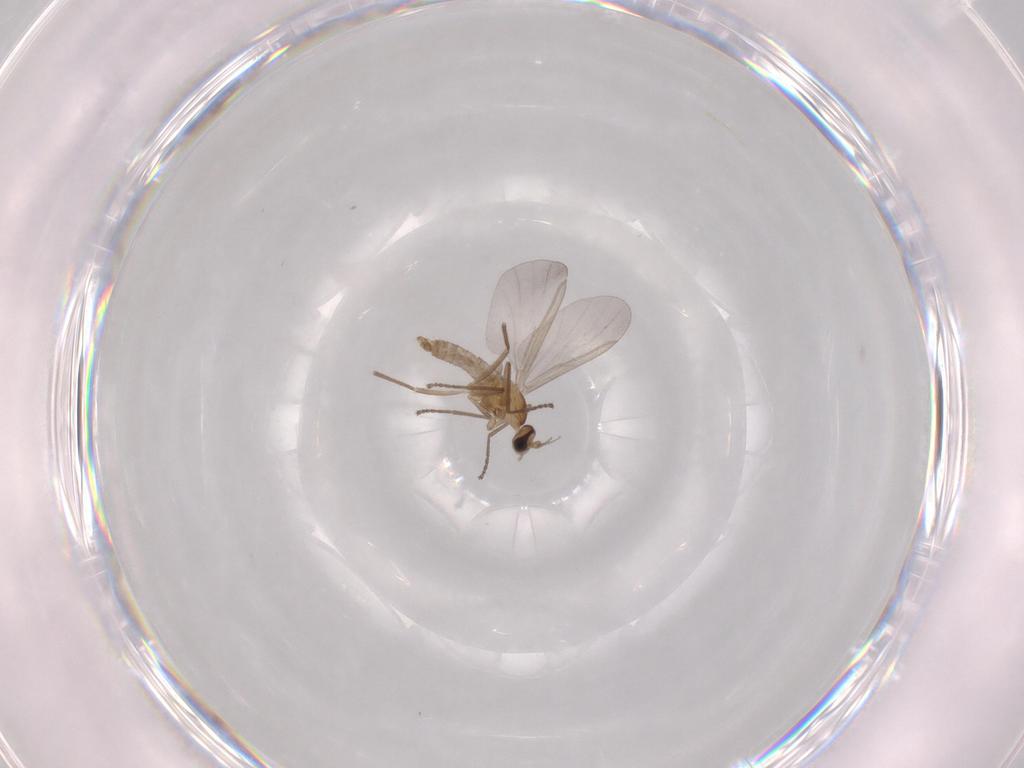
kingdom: Animalia
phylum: Arthropoda
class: Insecta
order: Diptera
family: Cecidomyiidae
